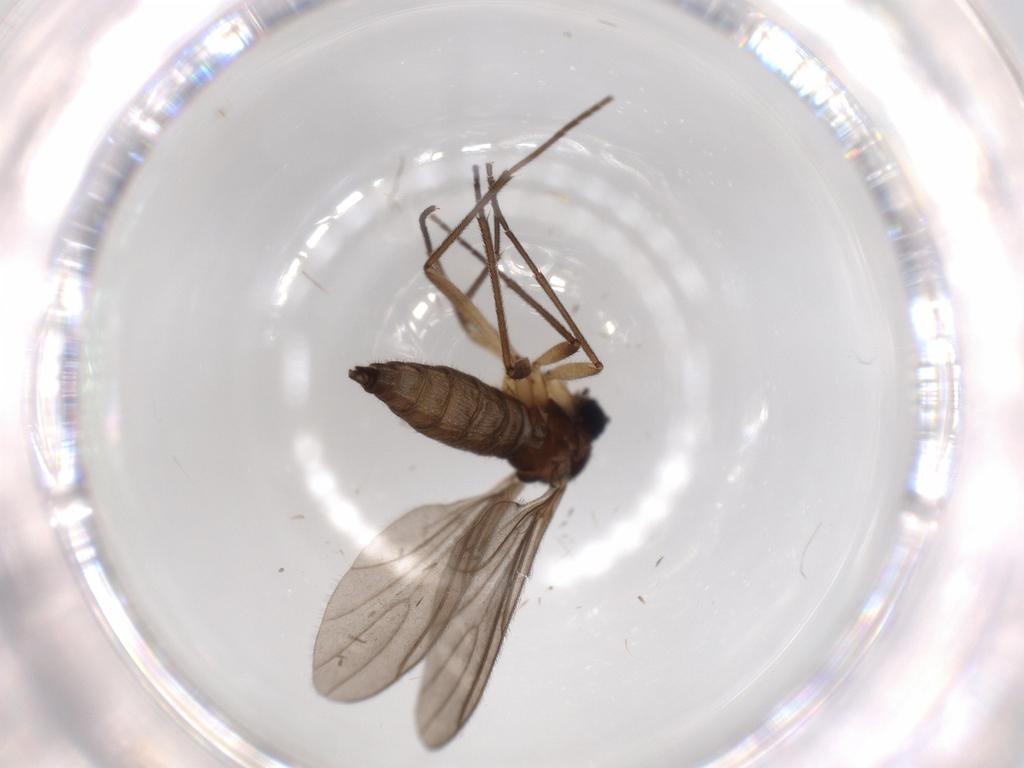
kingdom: Animalia
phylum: Arthropoda
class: Insecta
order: Diptera
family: Sciaridae
